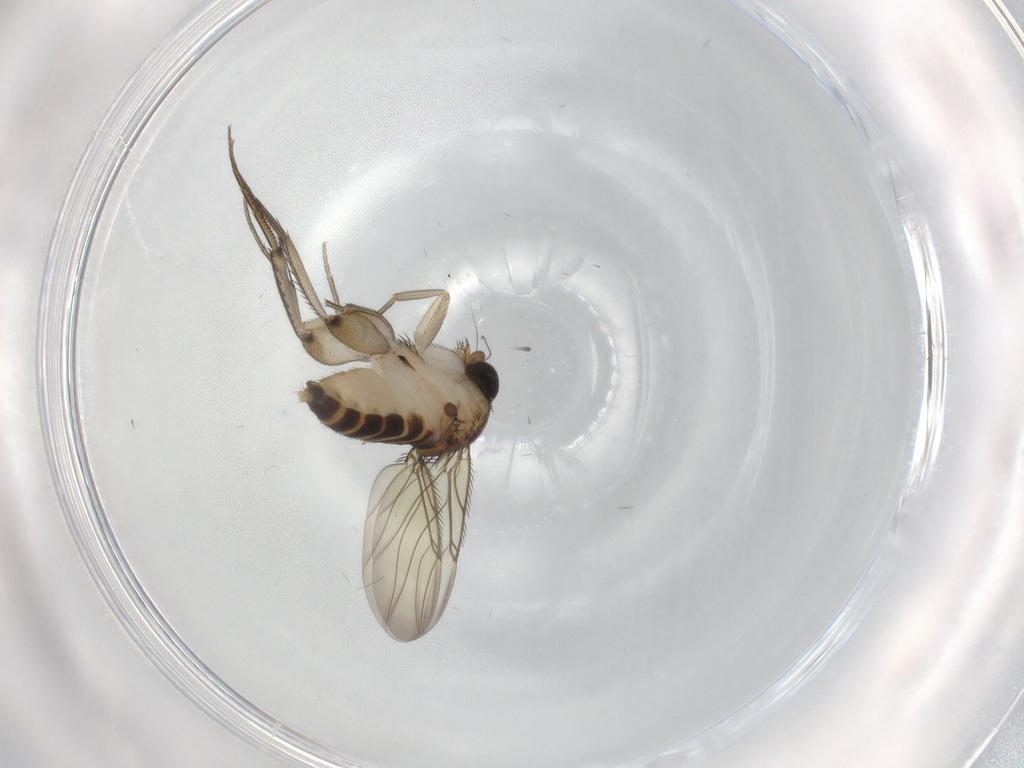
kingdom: Animalia
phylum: Arthropoda
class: Insecta
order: Diptera
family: Phoridae
